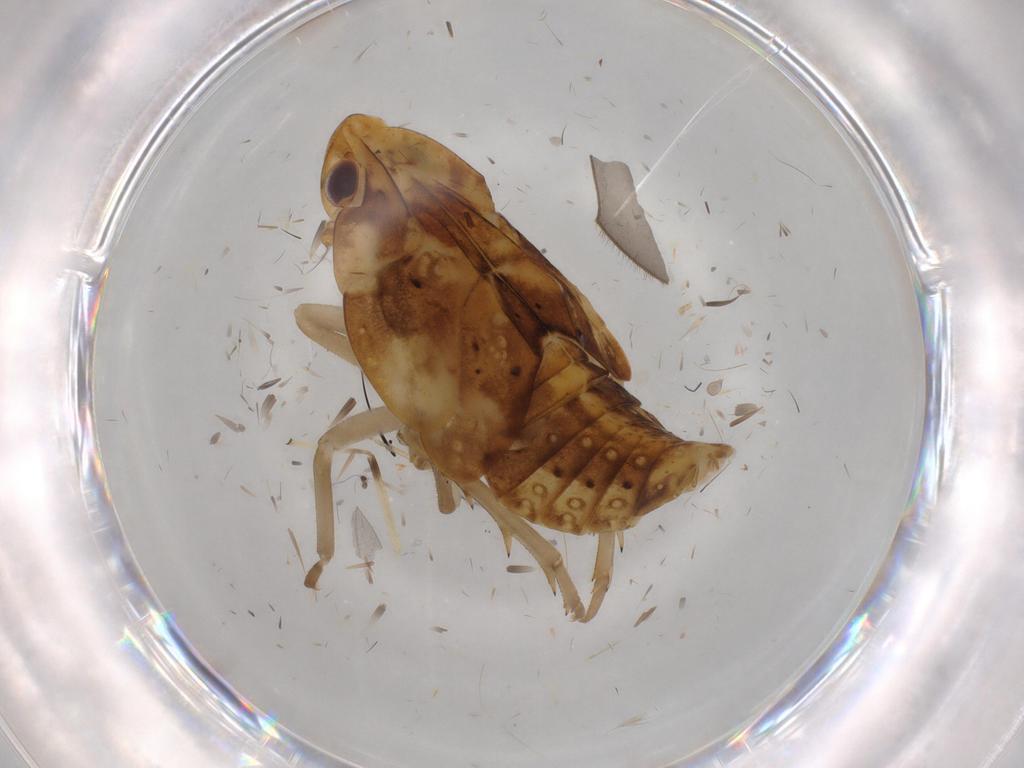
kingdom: Animalia
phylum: Arthropoda
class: Insecta
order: Hemiptera
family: Flatidae
